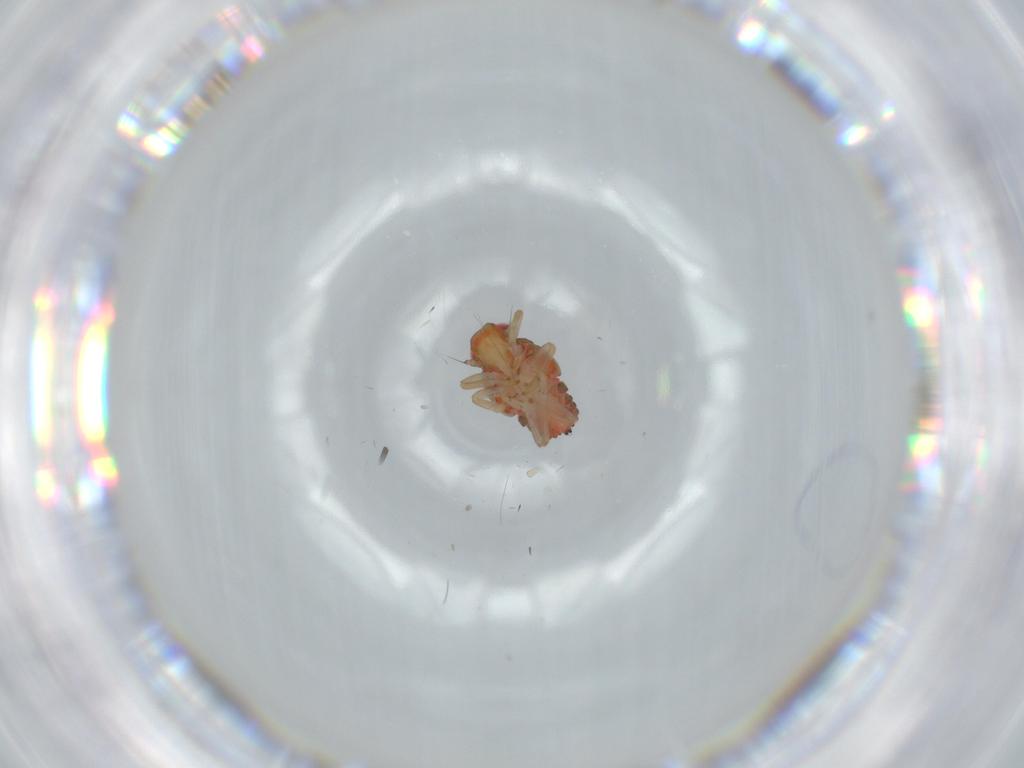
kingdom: Animalia
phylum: Arthropoda
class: Insecta
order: Hemiptera
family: Issidae
